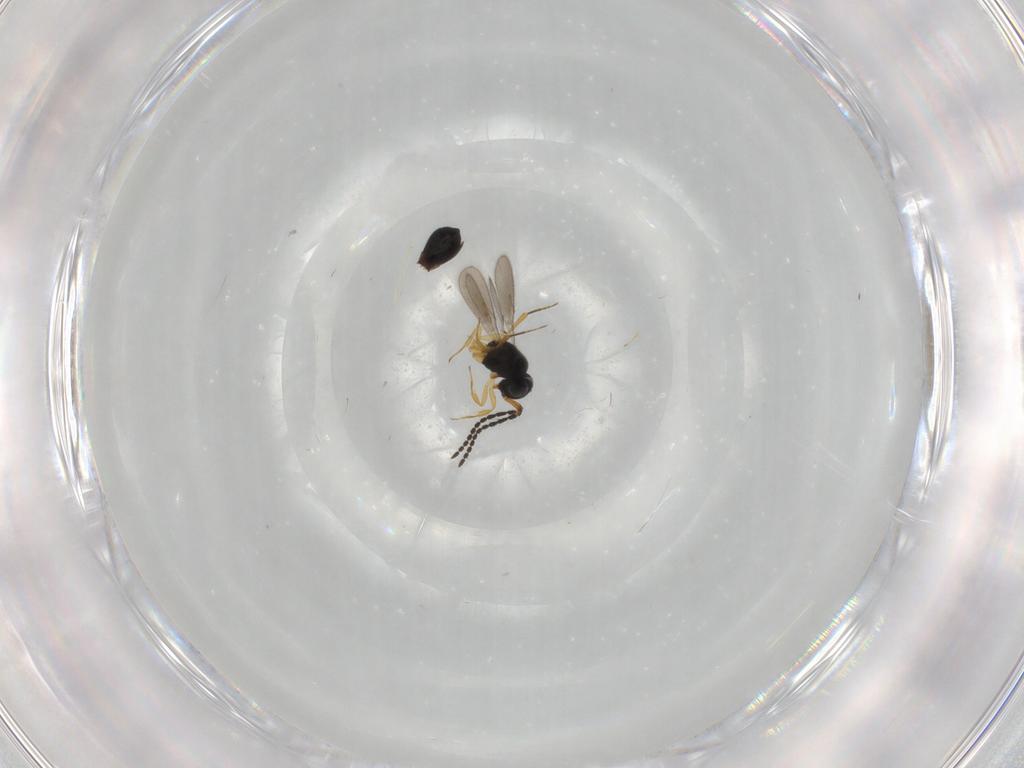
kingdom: Animalia
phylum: Arthropoda
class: Insecta
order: Hymenoptera
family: Scelionidae
